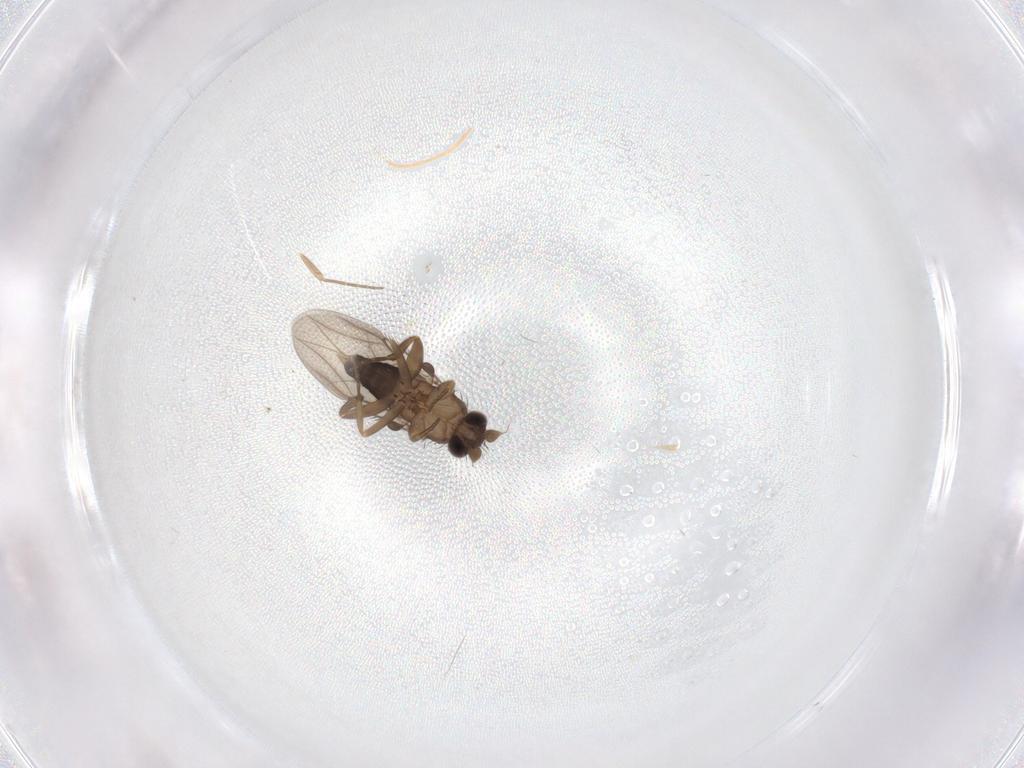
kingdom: Animalia
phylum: Arthropoda
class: Insecta
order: Diptera
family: Phoridae
